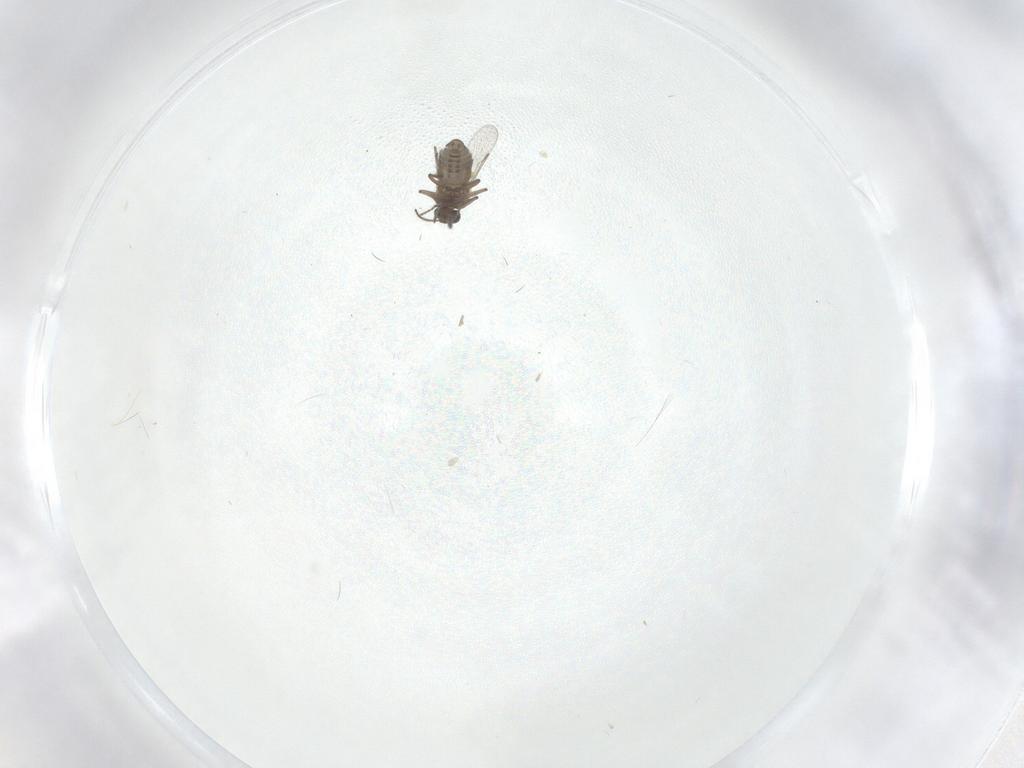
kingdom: Animalia
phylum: Arthropoda
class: Insecta
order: Diptera
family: Ceratopogonidae
